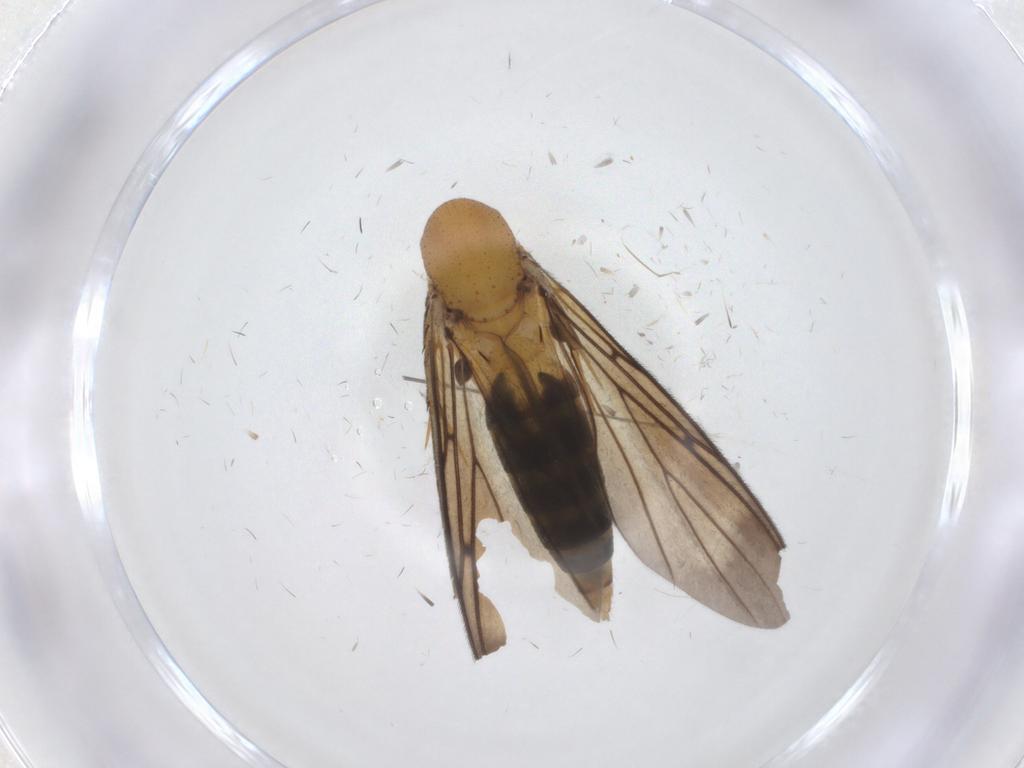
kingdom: Animalia
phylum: Arthropoda
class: Insecta
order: Diptera
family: Mycetophilidae
